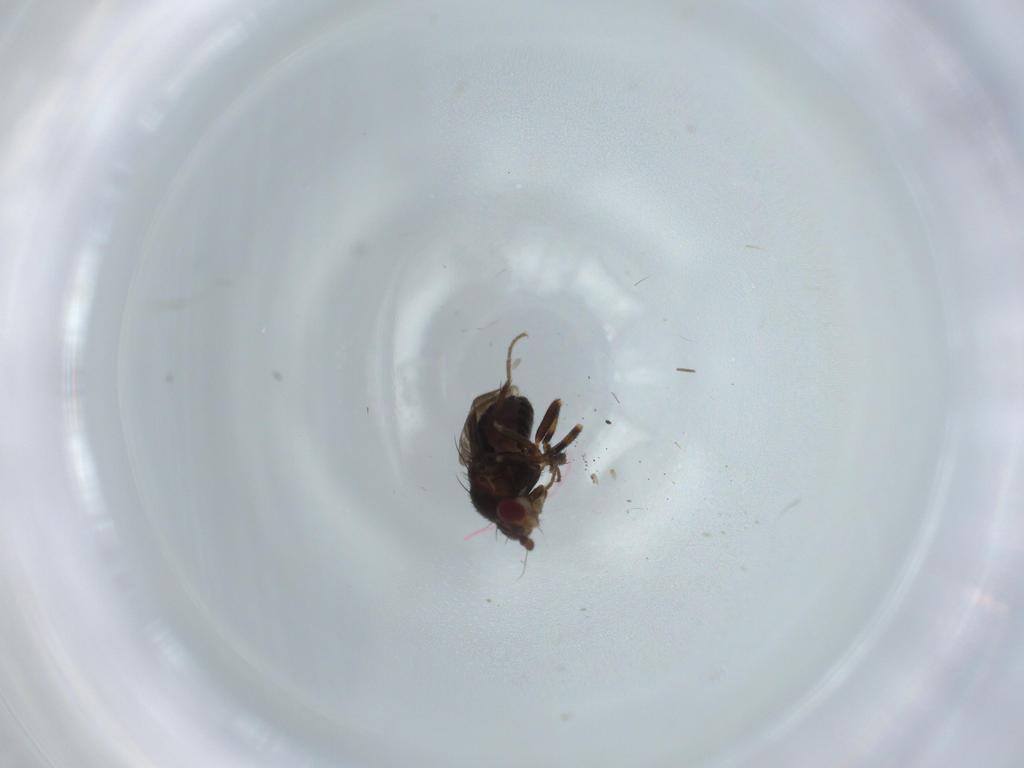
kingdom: Animalia
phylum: Arthropoda
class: Insecta
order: Diptera
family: Sphaeroceridae
